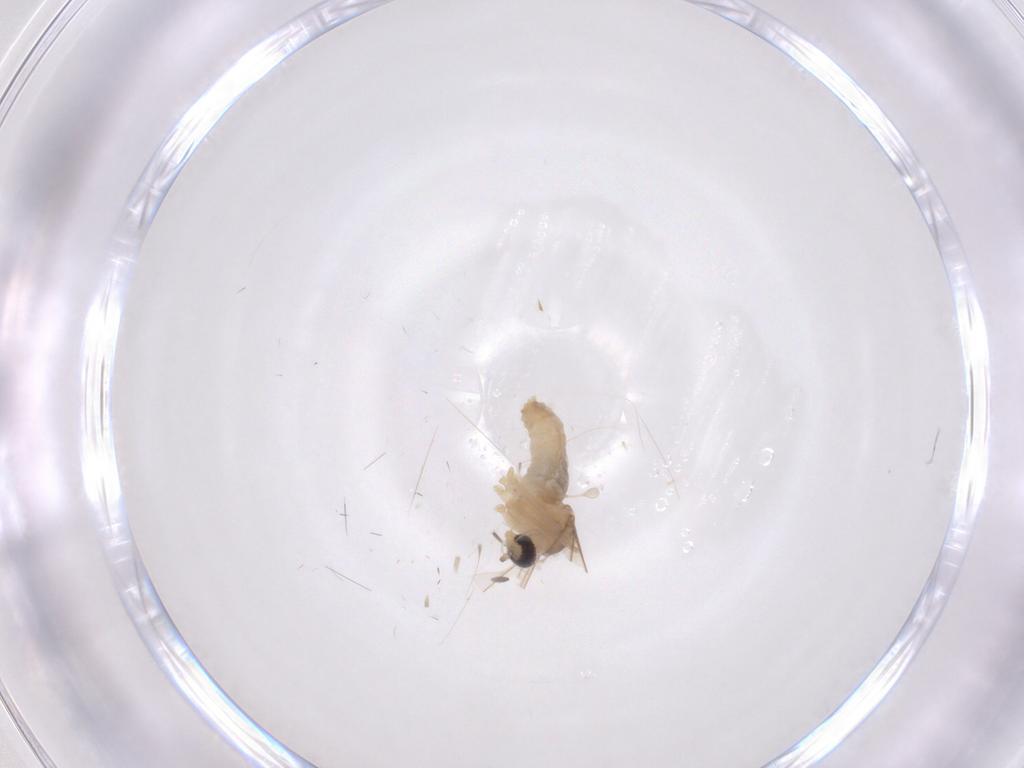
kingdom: Animalia
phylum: Arthropoda
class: Insecta
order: Diptera
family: Cecidomyiidae
